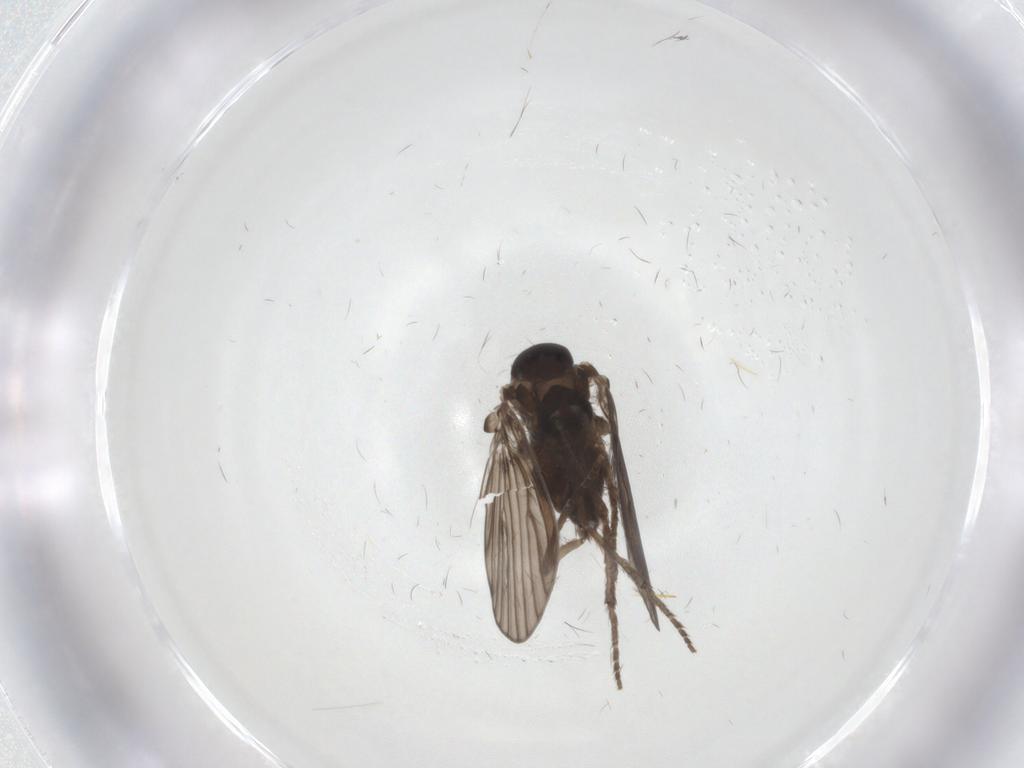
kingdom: Animalia
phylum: Arthropoda
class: Insecta
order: Diptera
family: Psychodidae
